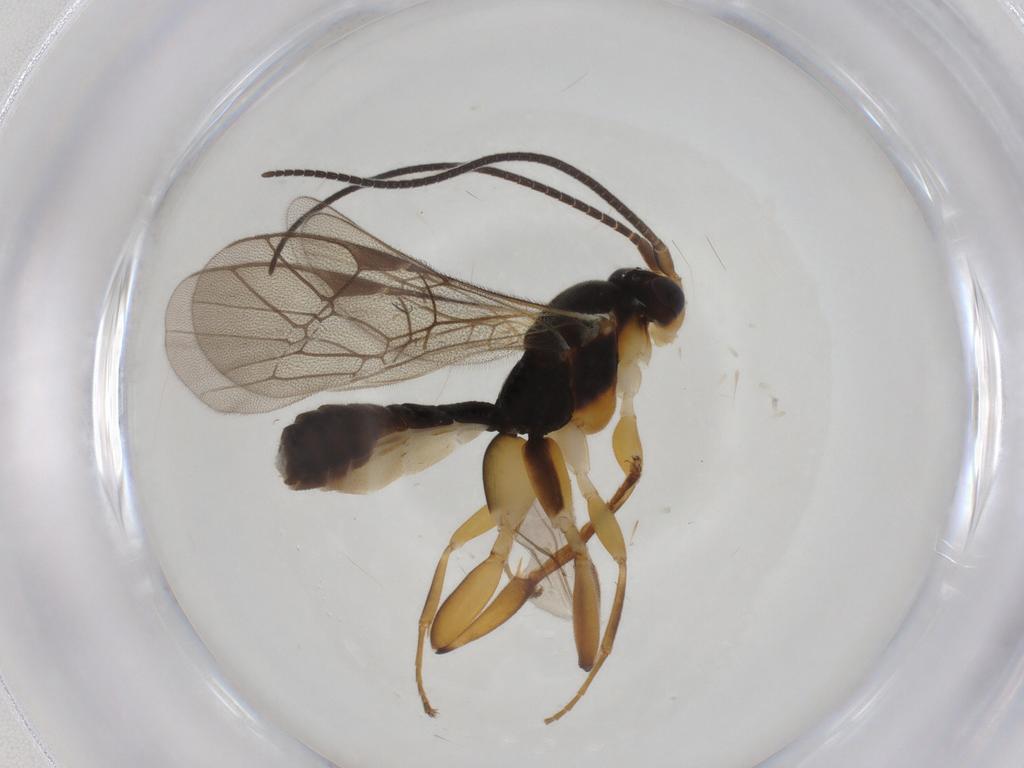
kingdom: Animalia
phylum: Arthropoda
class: Insecta
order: Hymenoptera
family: Ichneumonidae
